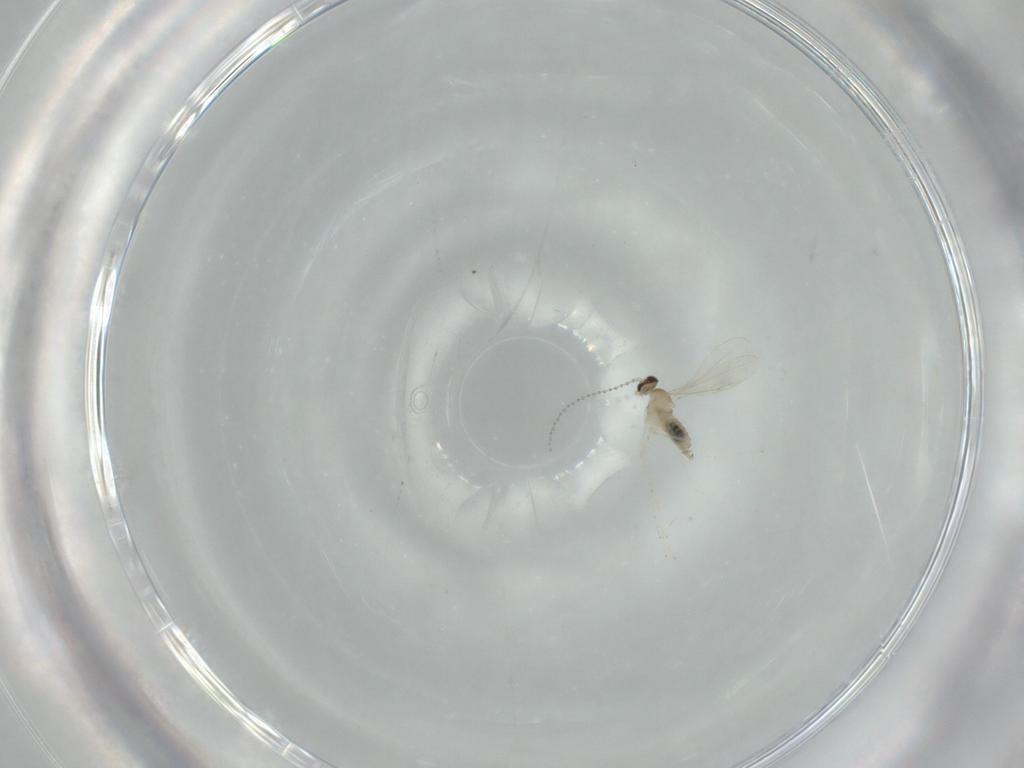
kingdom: Animalia
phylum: Arthropoda
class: Insecta
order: Diptera
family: Cecidomyiidae
